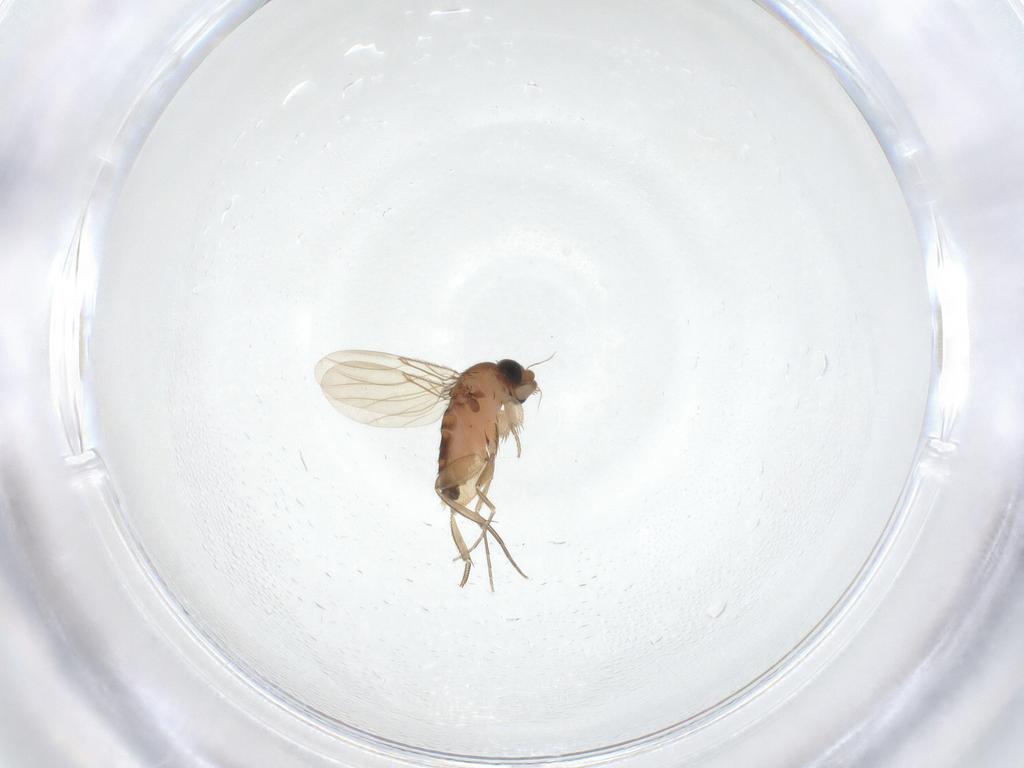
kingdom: Animalia
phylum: Arthropoda
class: Insecta
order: Diptera
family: Phoridae
